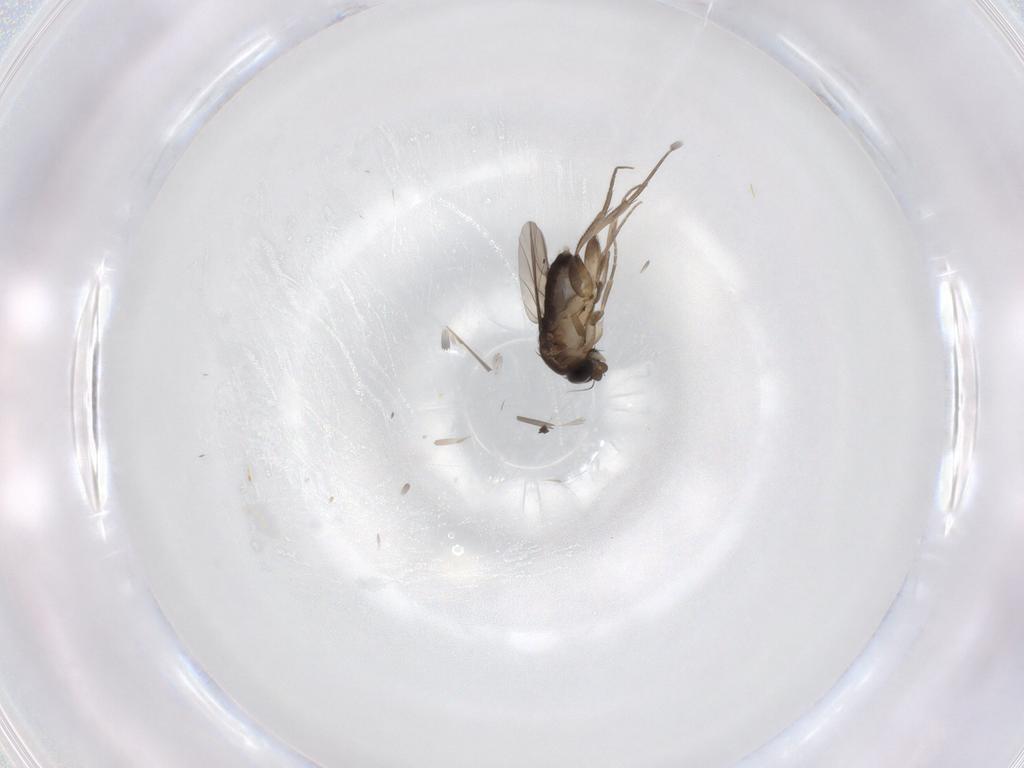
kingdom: Animalia
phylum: Arthropoda
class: Insecta
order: Diptera
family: Phoridae
